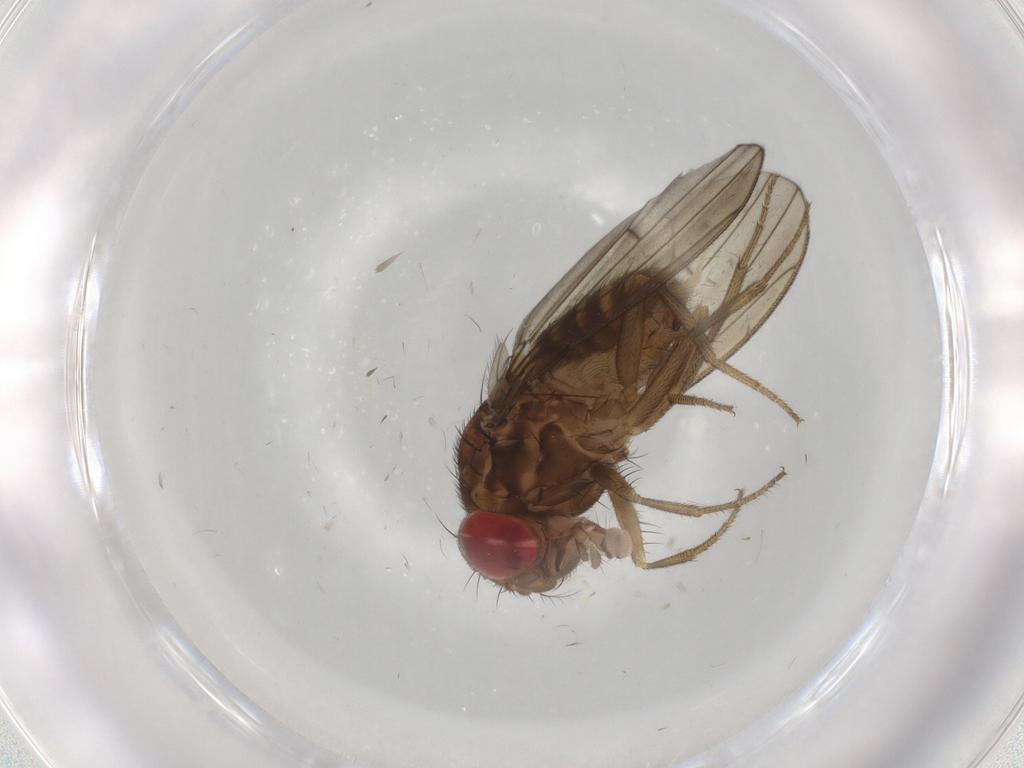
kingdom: Animalia
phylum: Arthropoda
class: Insecta
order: Diptera
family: Drosophilidae
